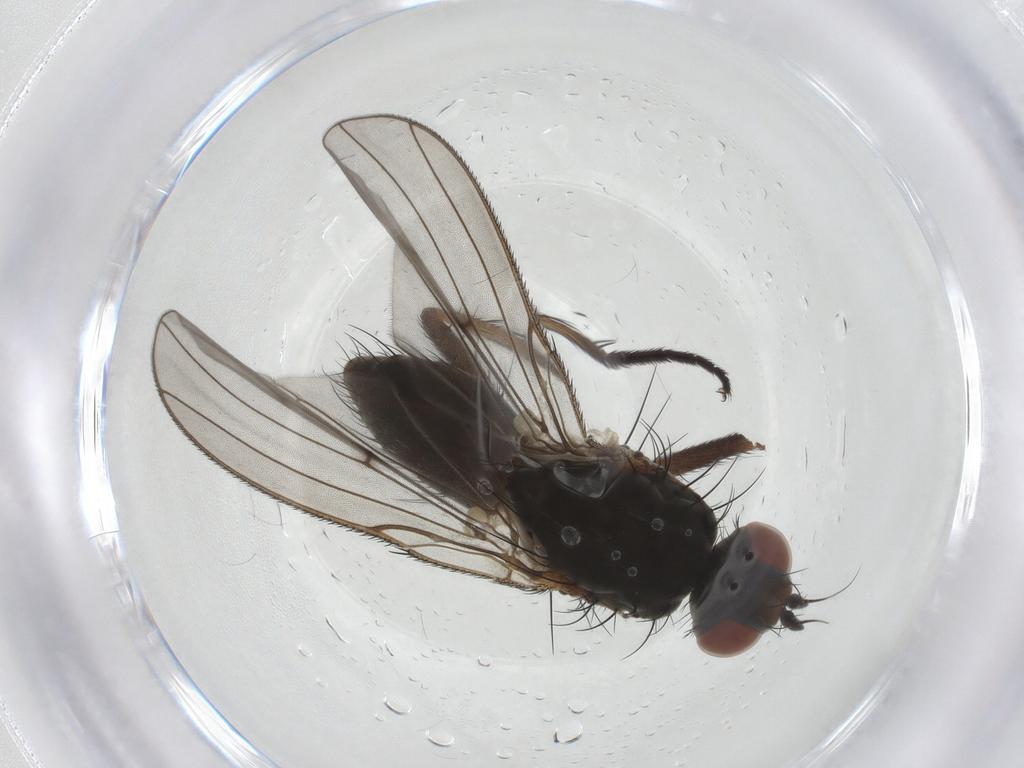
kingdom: Animalia
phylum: Arthropoda
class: Insecta
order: Diptera
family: Anthomyiidae
